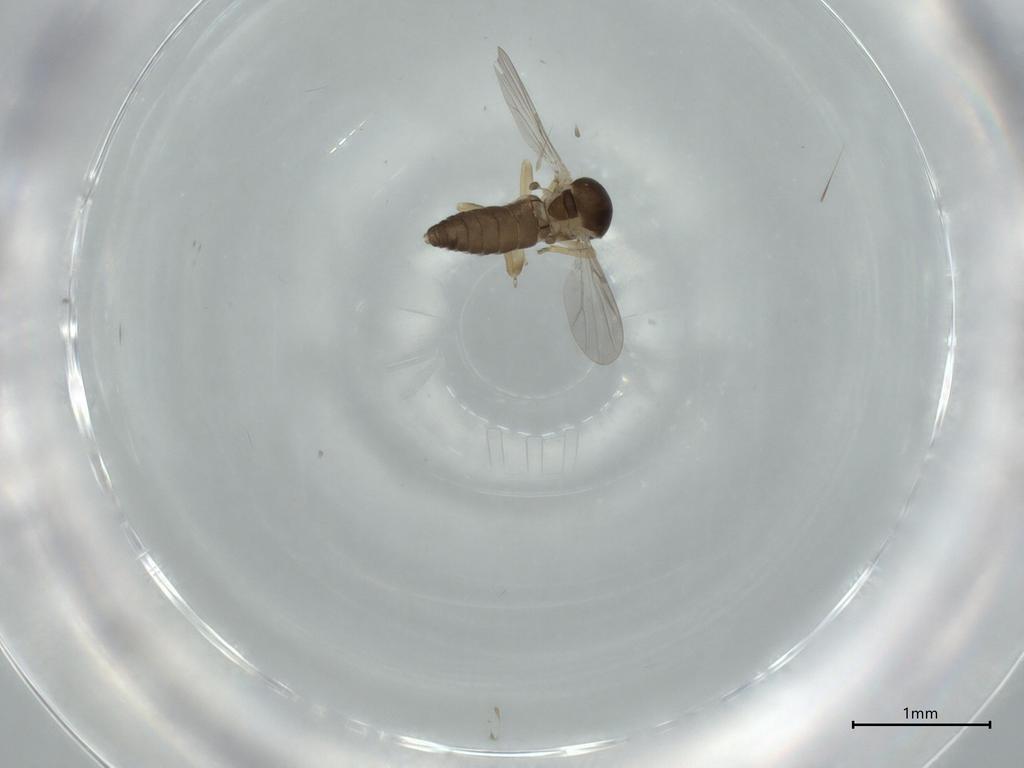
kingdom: Animalia
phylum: Arthropoda
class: Insecta
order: Diptera
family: Ceratopogonidae
